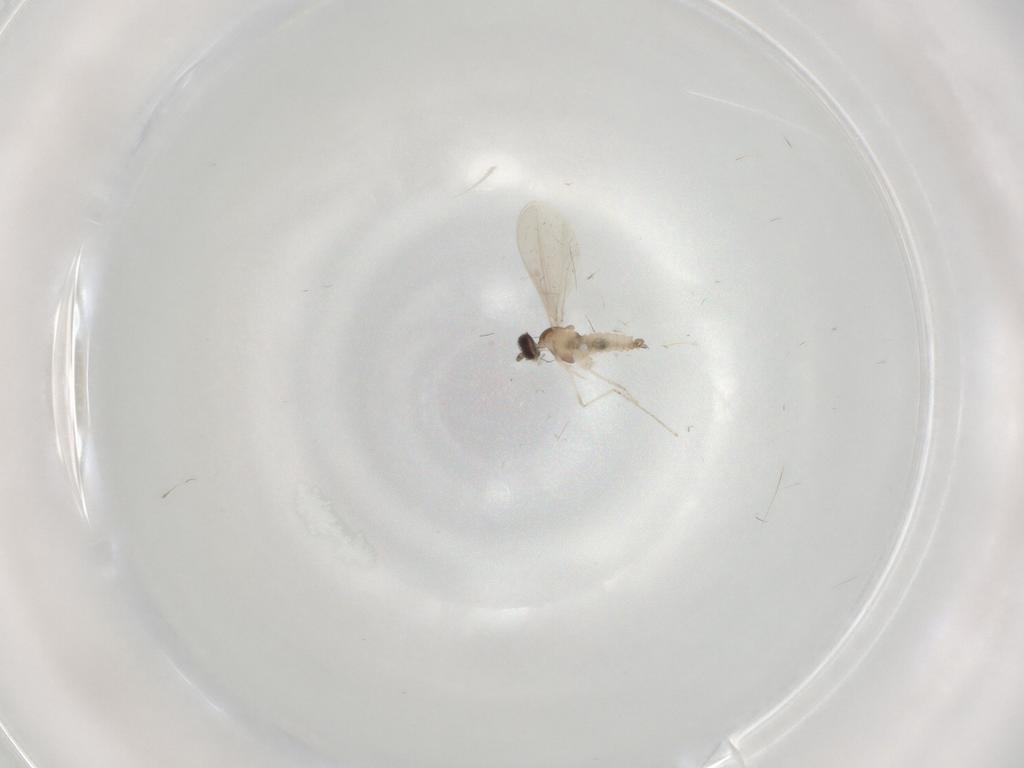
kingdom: Animalia
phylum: Arthropoda
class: Insecta
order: Diptera
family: Cecidomyiidae
